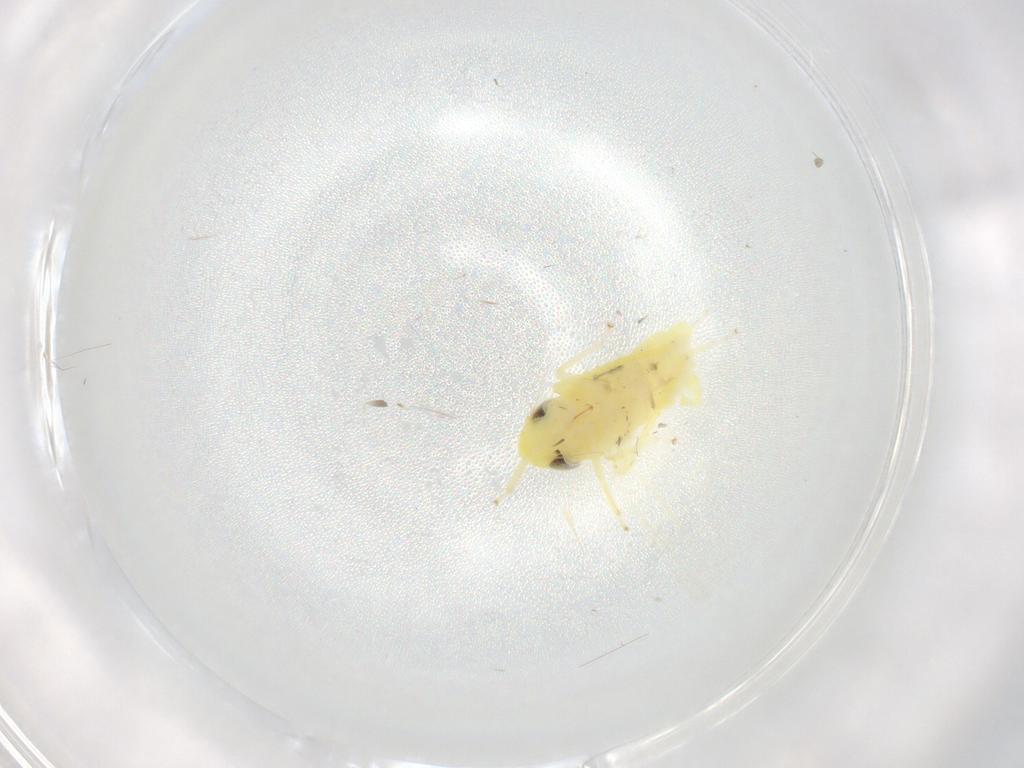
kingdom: Animalia
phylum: Arthropoda
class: Insecta
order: Hemiptera
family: Cicadellidae
